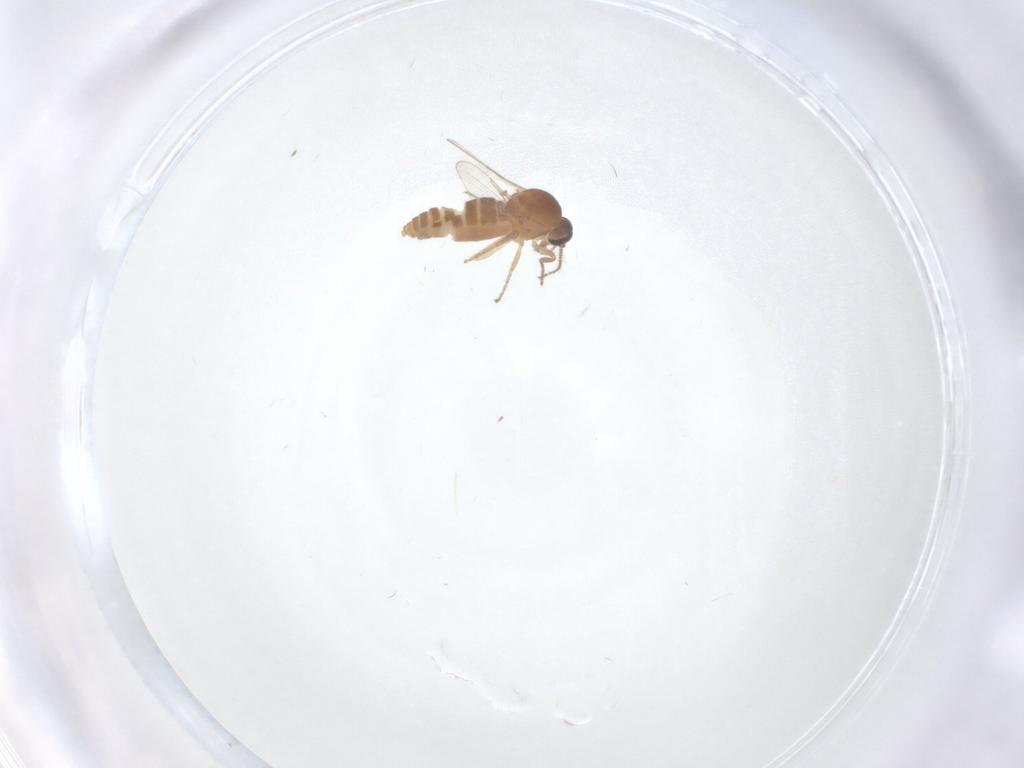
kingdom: Animalia
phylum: Arthropoda
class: Insecta
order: Diptera
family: Ceratopogonidae
